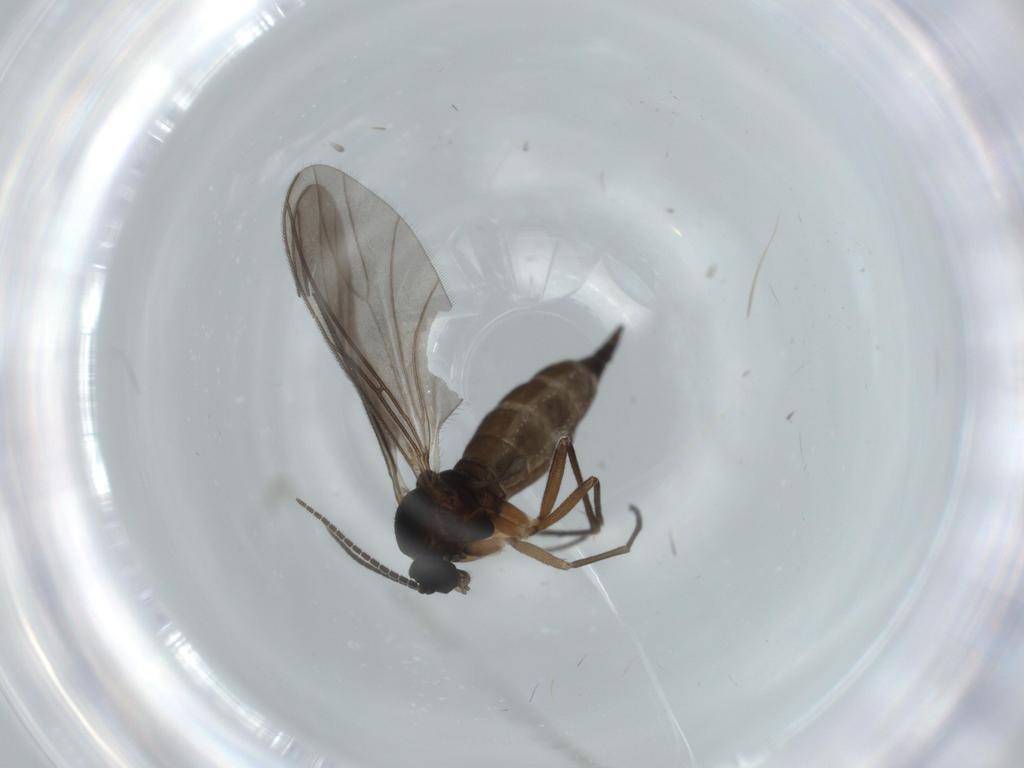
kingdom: Animalia
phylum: Arthropoda
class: Insecta
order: Diptera
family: Sciaridae
